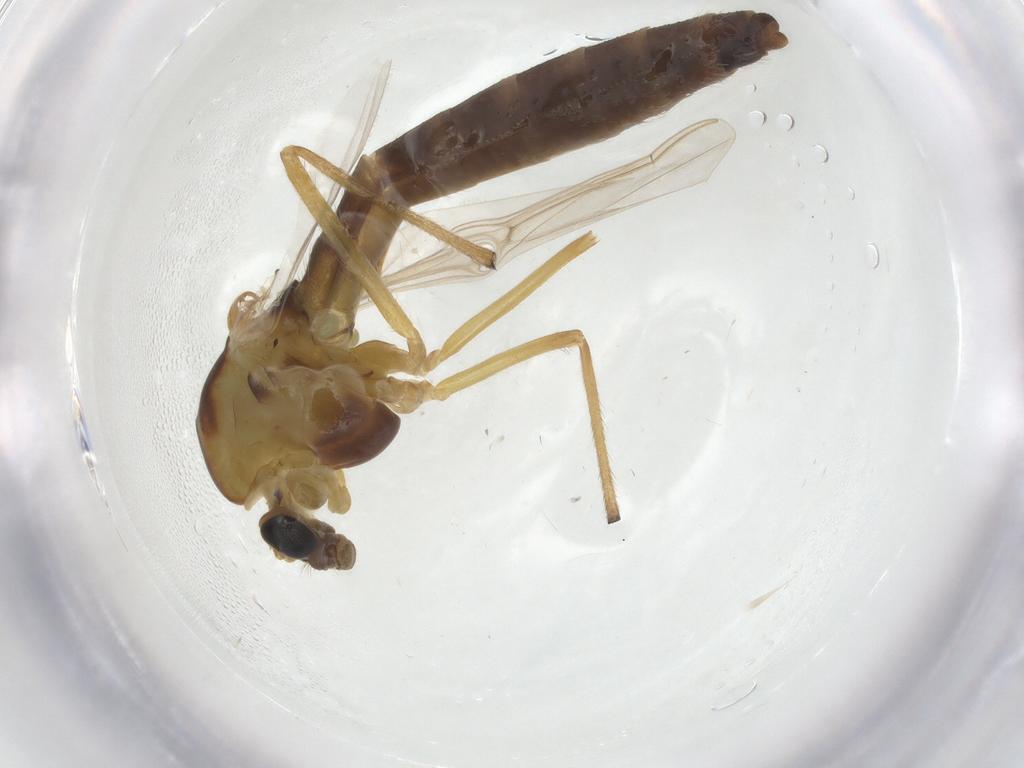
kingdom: Animalia
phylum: Arthropoda
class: Insecta
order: Diptera
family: Chironomidae
